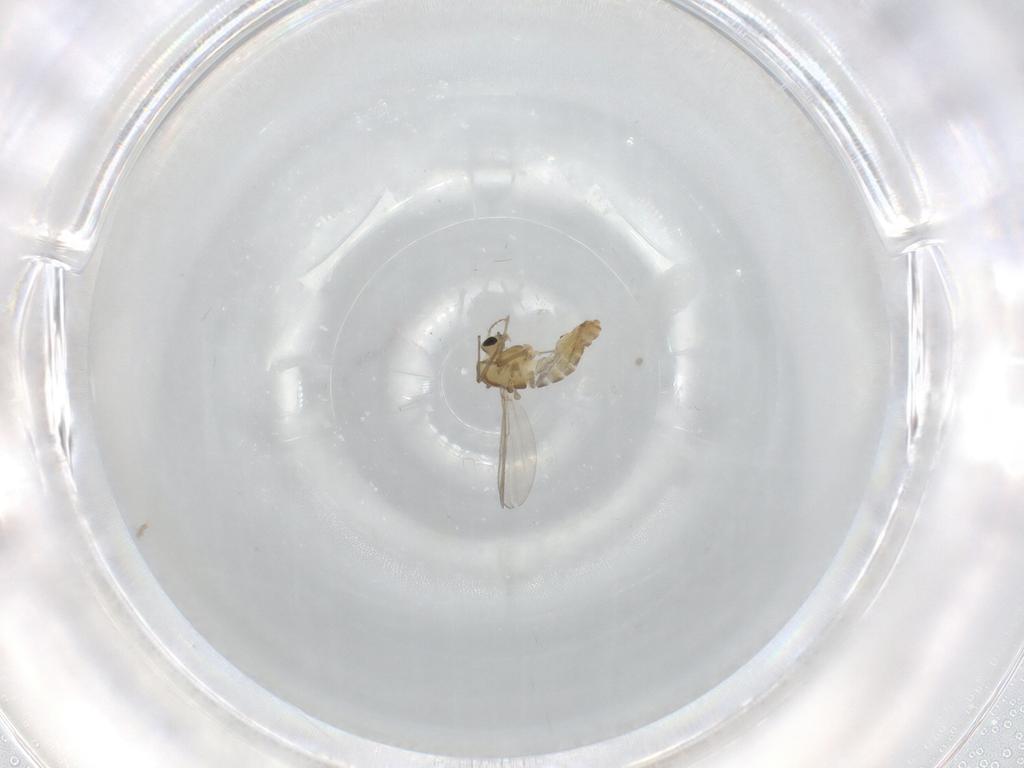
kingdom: Animalia
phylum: Arthropoda
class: Insecta
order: Diptera
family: Chironomidae
